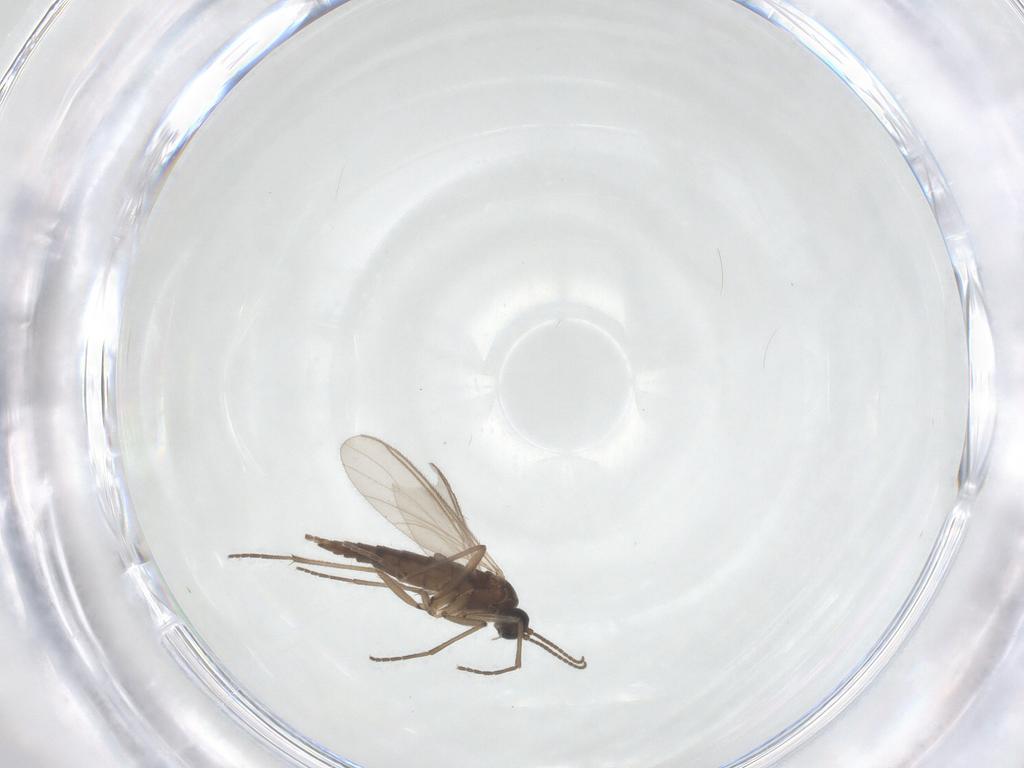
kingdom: Animalia
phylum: Arthropoda
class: Insecta
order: Diptera
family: Sciaridae
